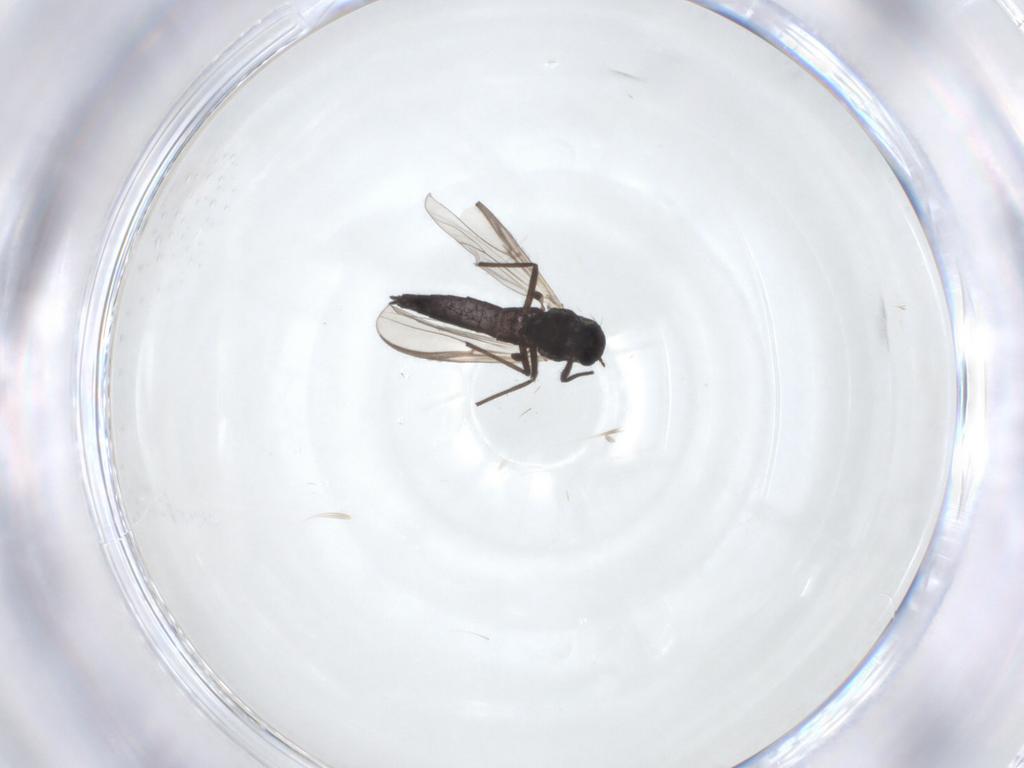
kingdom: Animalia
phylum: Arthropoda
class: Insecta
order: Diptera
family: Chironomidae
